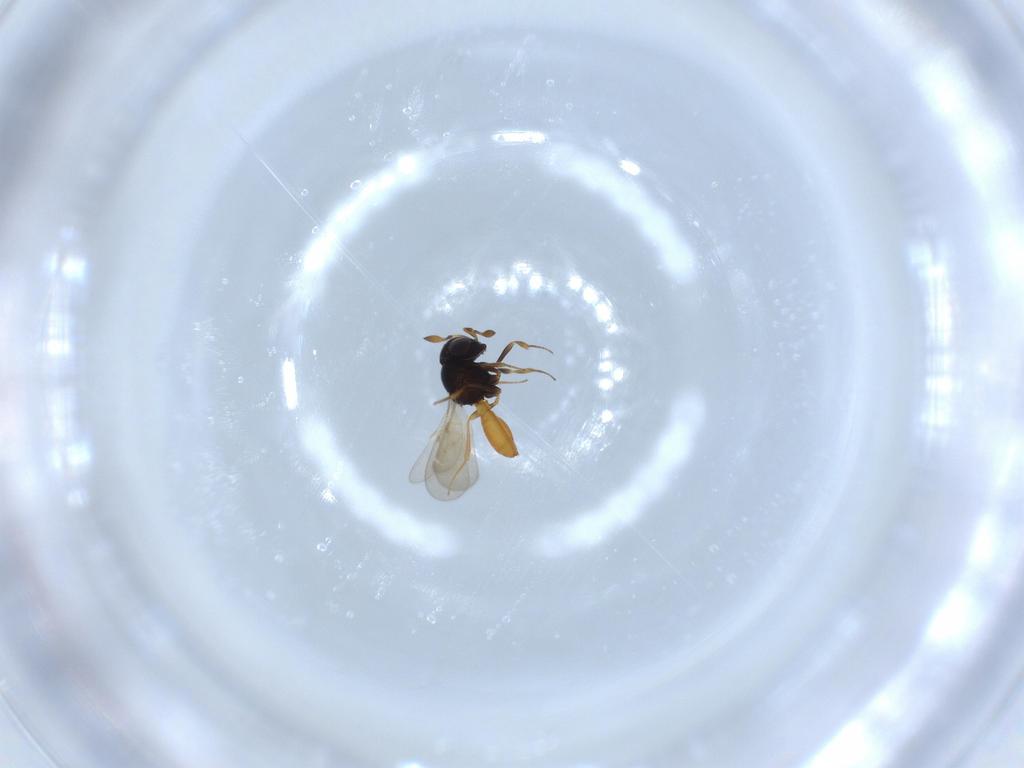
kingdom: Animalia
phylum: Arthropoda
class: Insecta
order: Hymenoptera
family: Scelionidae
